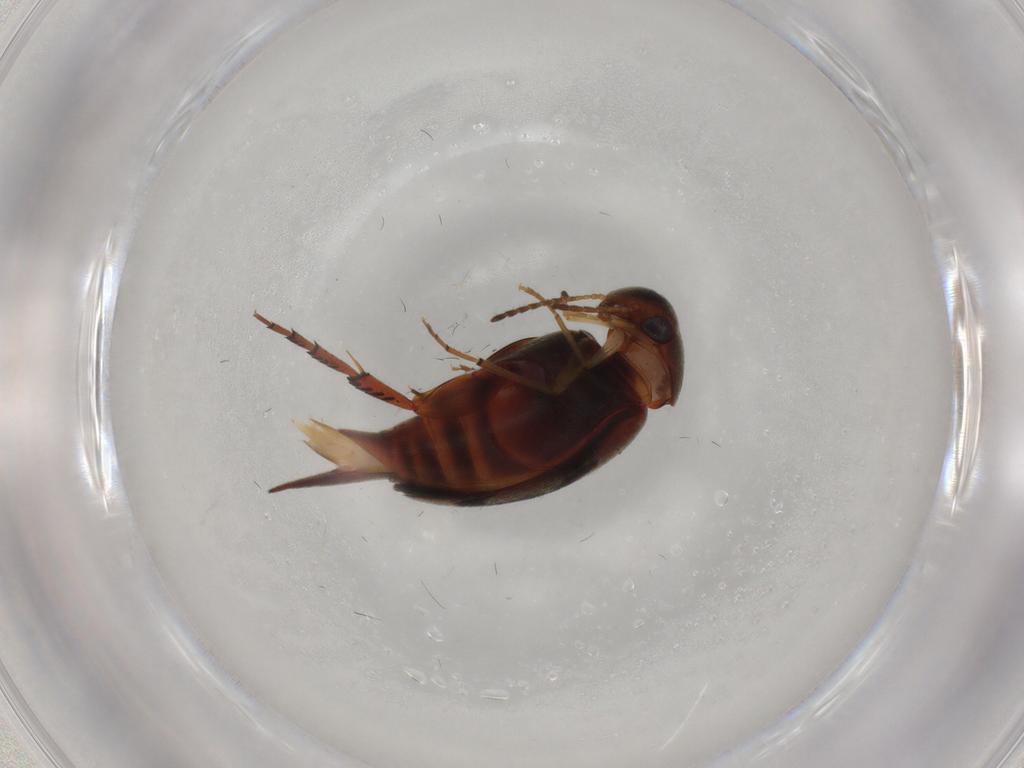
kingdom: Animalia
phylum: Arthropoda
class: Insecta
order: Coleoptera
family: Mordellidae
